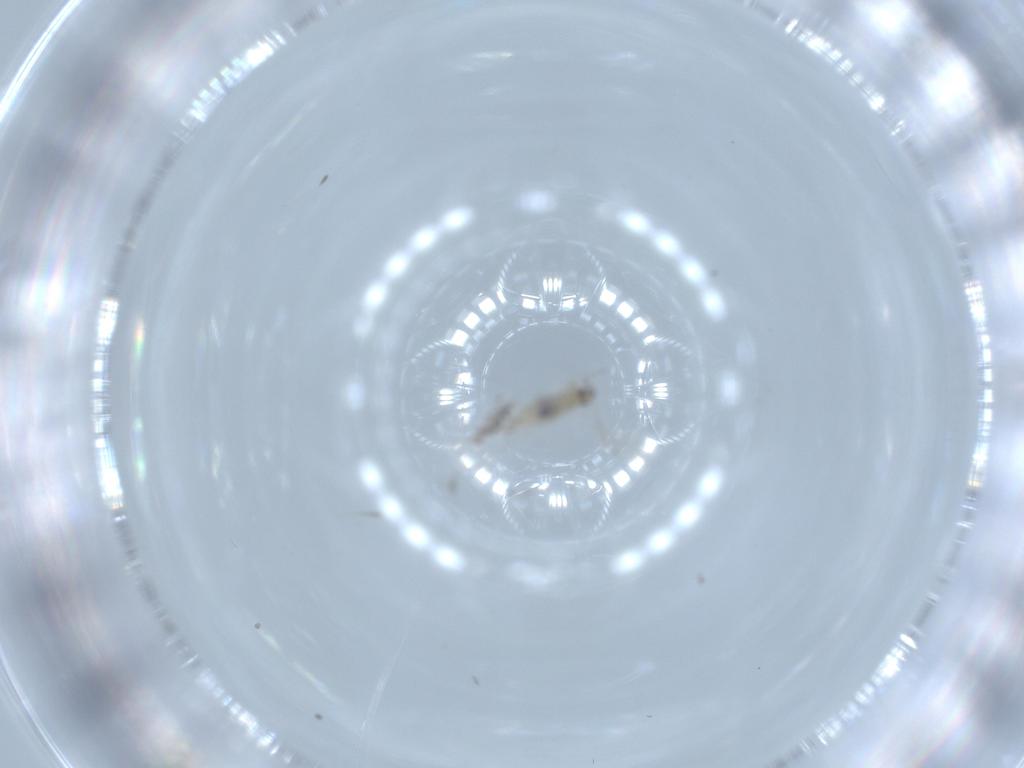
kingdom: Animalia
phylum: Arthropoda
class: Insecta
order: Diptera
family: Cecidomyiidae
